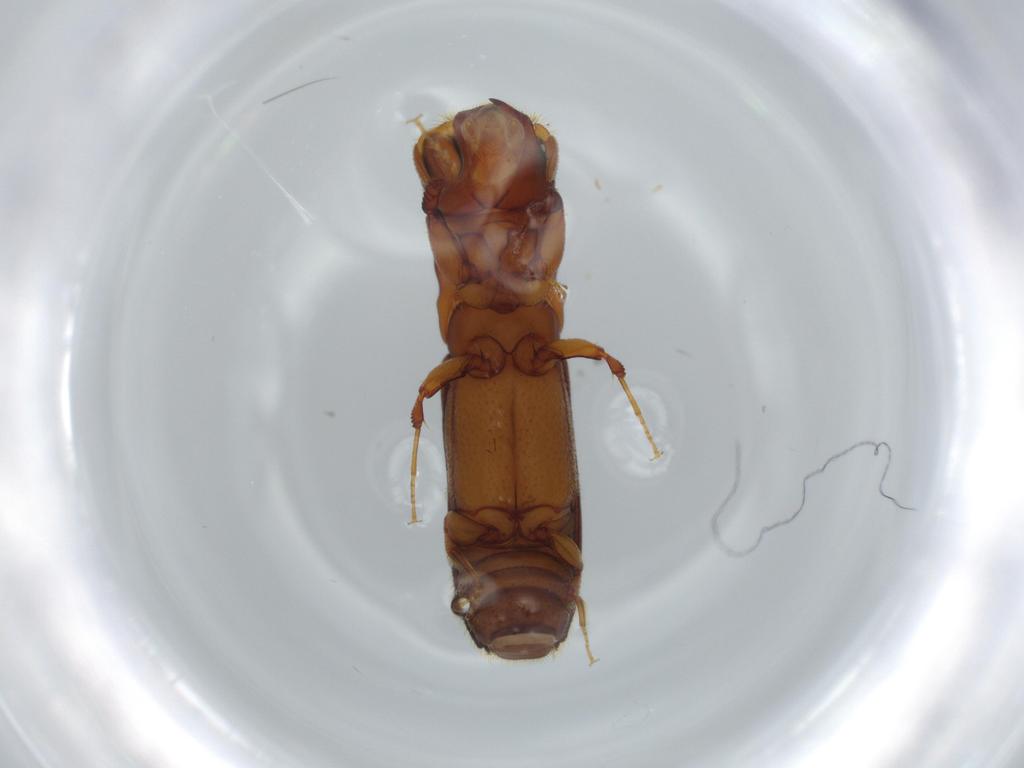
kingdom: Animalia
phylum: Arthropoda
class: Insecta
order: Coleoptera
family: Curculionidae
